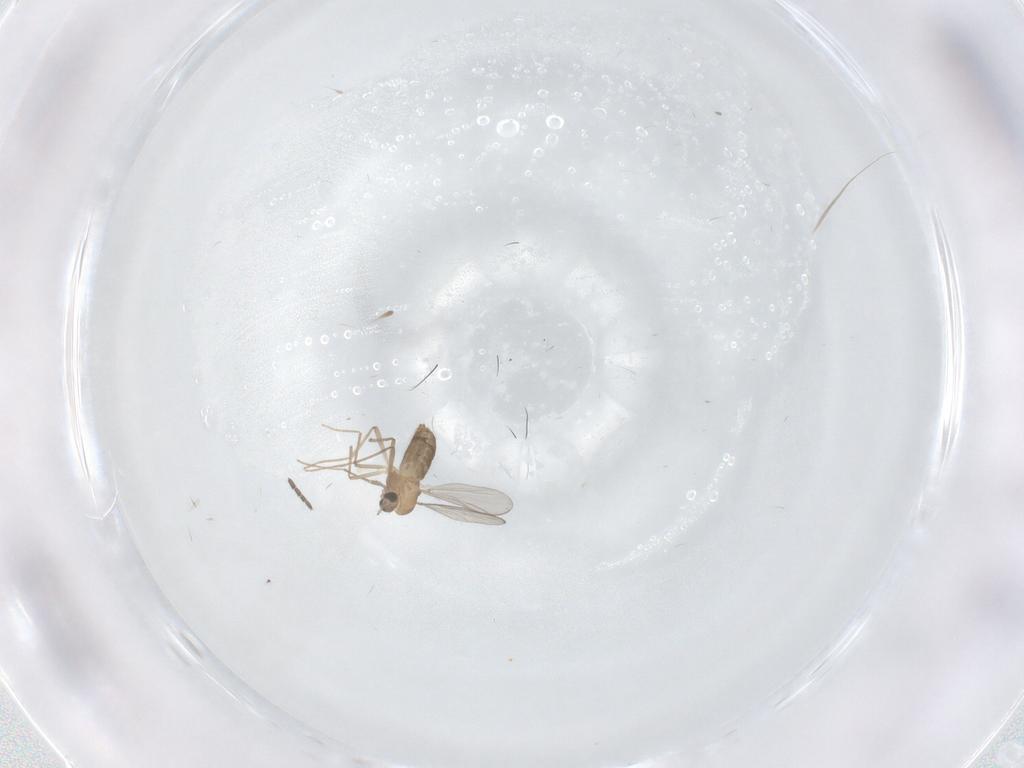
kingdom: Animalia
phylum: Arthropoda
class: Insecta
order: Diptera
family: Chironomidae
